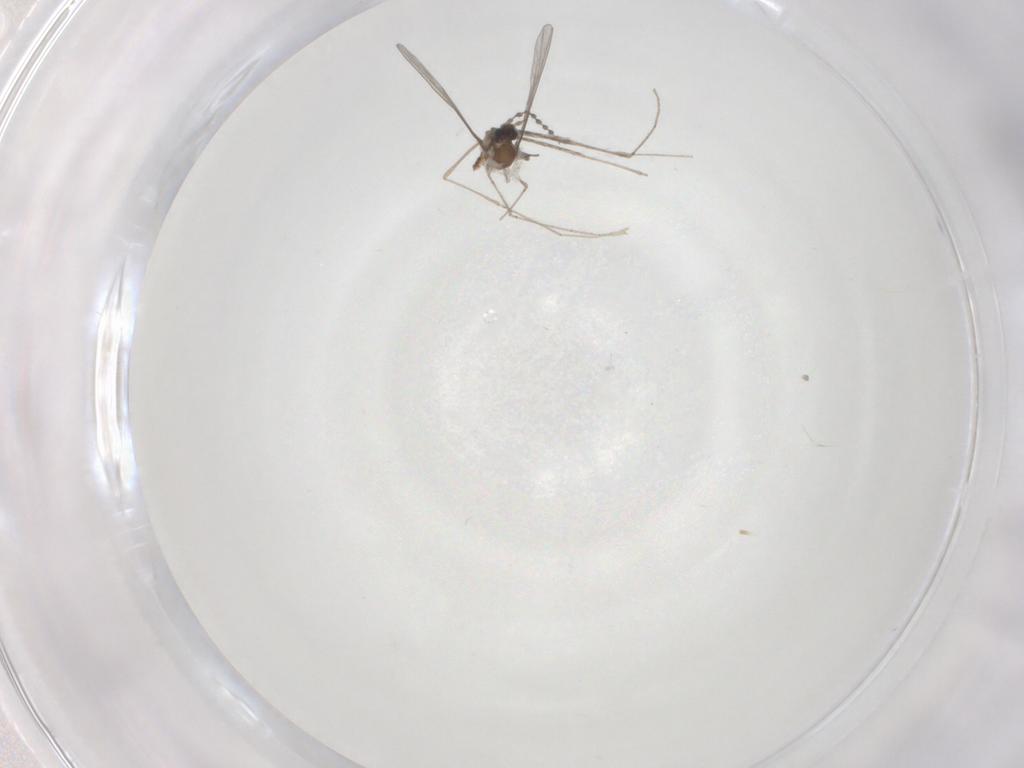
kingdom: Animalia
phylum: Arthropoda
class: Insecta
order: Diptera
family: Cecidomyiidae
